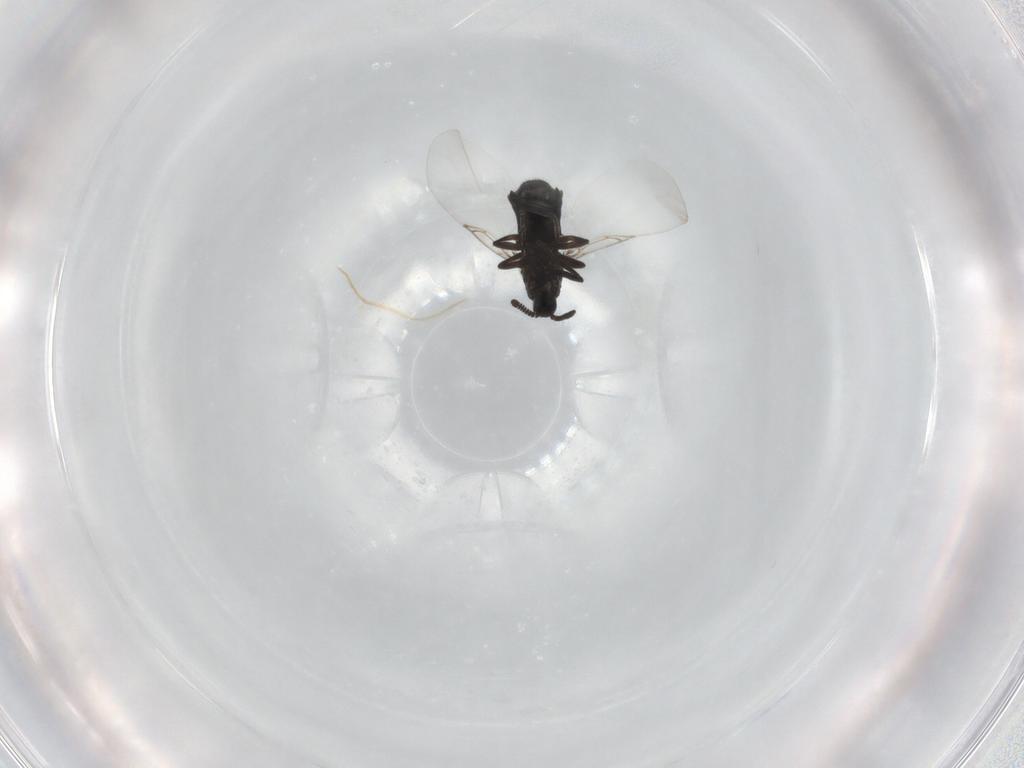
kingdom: Animalia
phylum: Arthropoda
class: Insecta
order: Diptera
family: Scatopsidae
